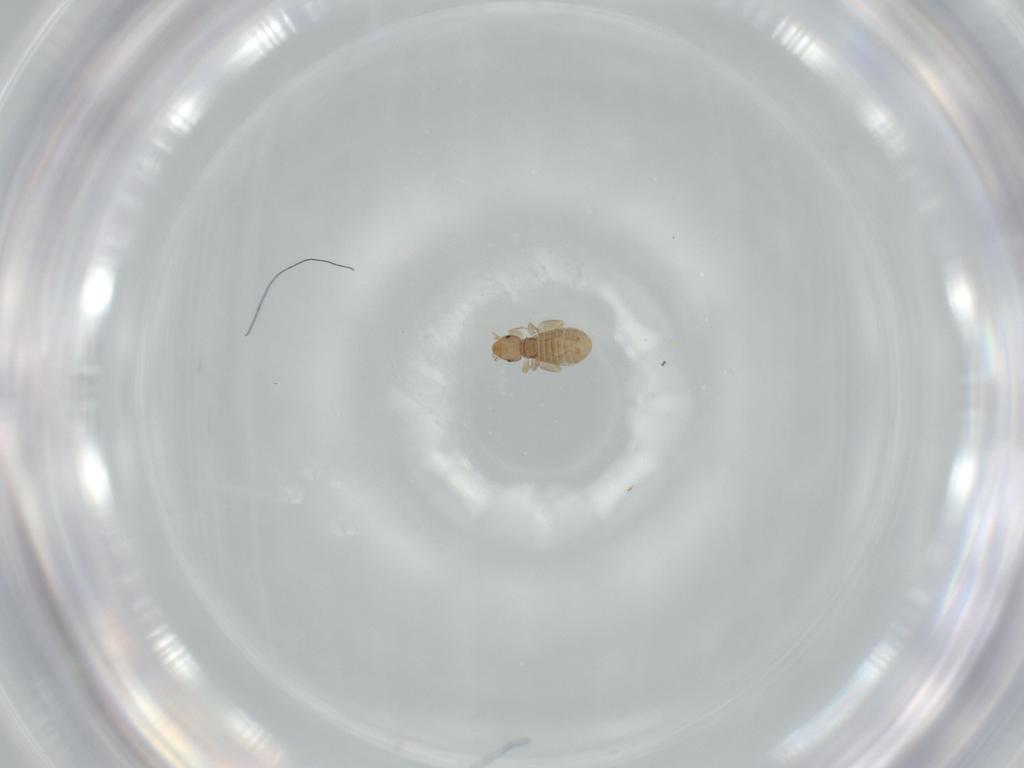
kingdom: Animalia
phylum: Arthropoda
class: Insecta
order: Psocodea
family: Liposcelididae
